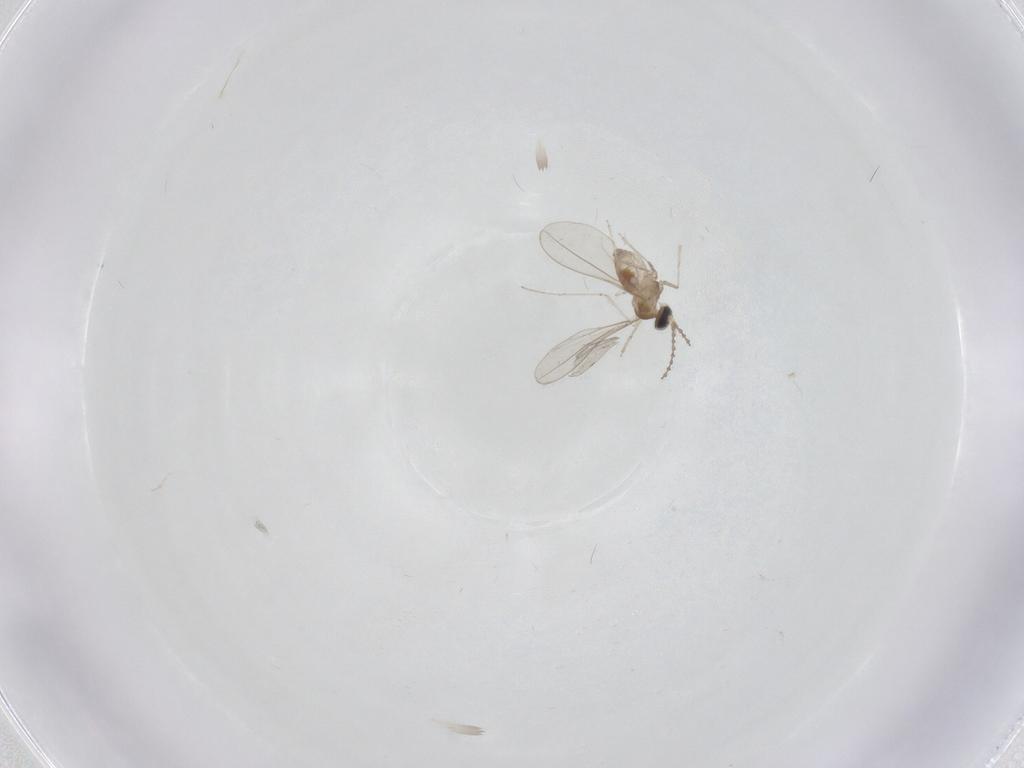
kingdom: Animalia
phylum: Arthropoda
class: Insecta
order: Diptera
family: Cecidomyiidae
